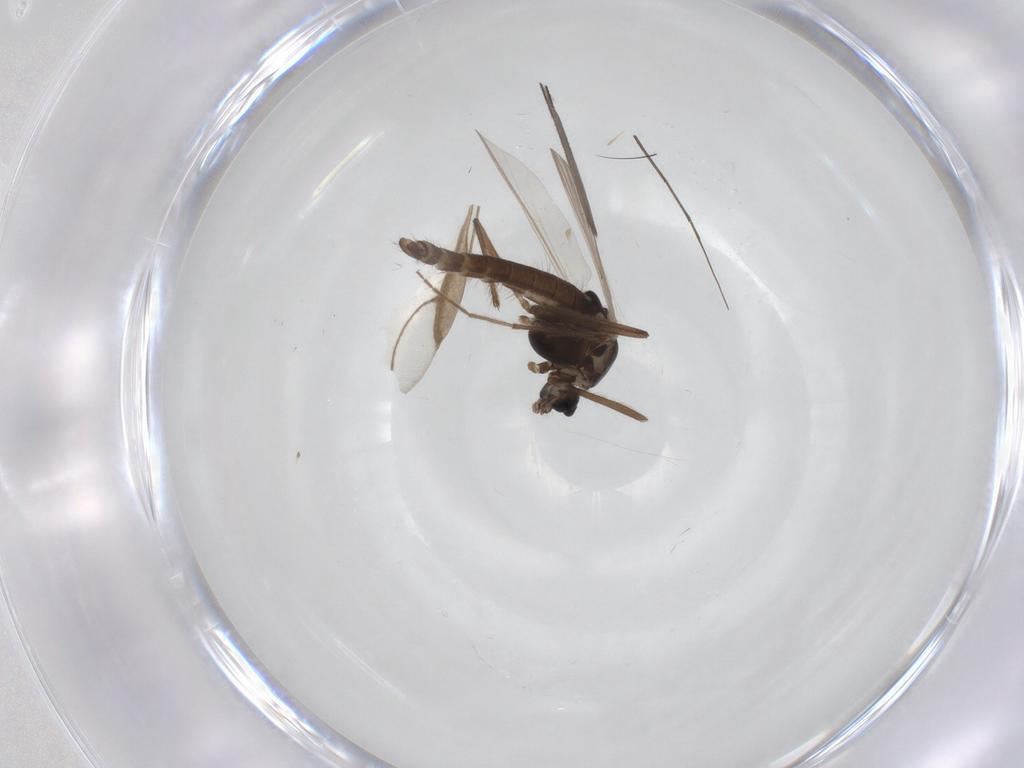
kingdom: Animalia
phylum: Arthropoda
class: Insecta
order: Diptera
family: Chironomidae
